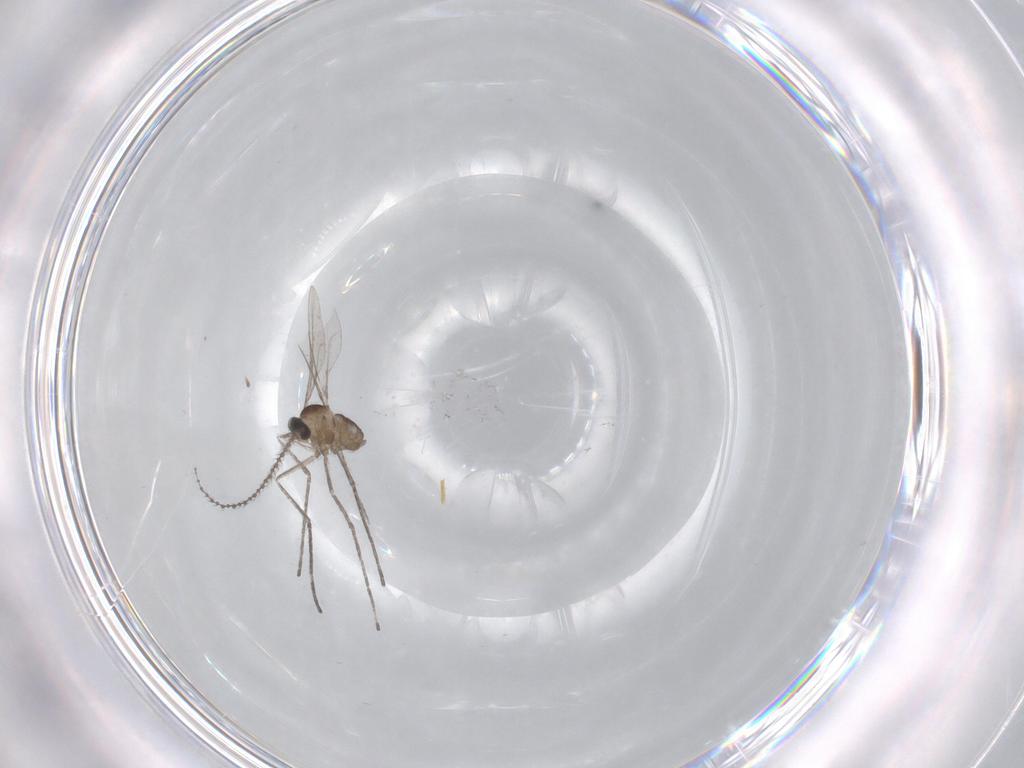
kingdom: Animalia
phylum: Arthropoda
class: Insecta
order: Diptera
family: Cecidomyiidae
